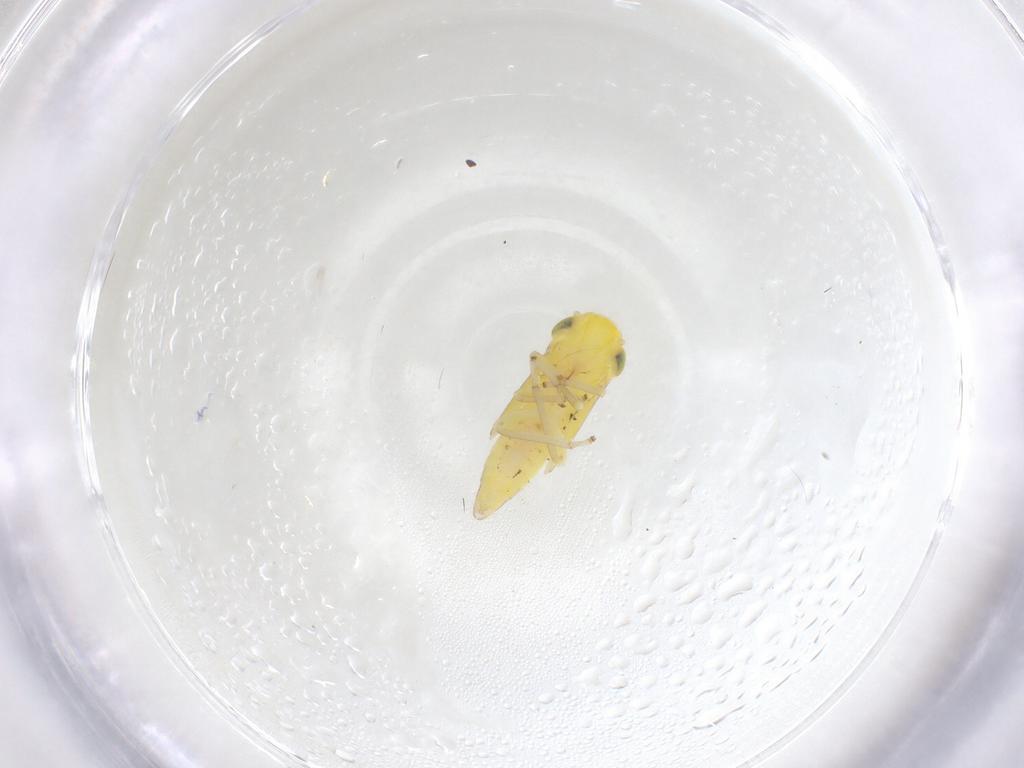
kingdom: Animalia
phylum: Arthropoda
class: Insecta
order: Hemiptera
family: Cicadellidae
